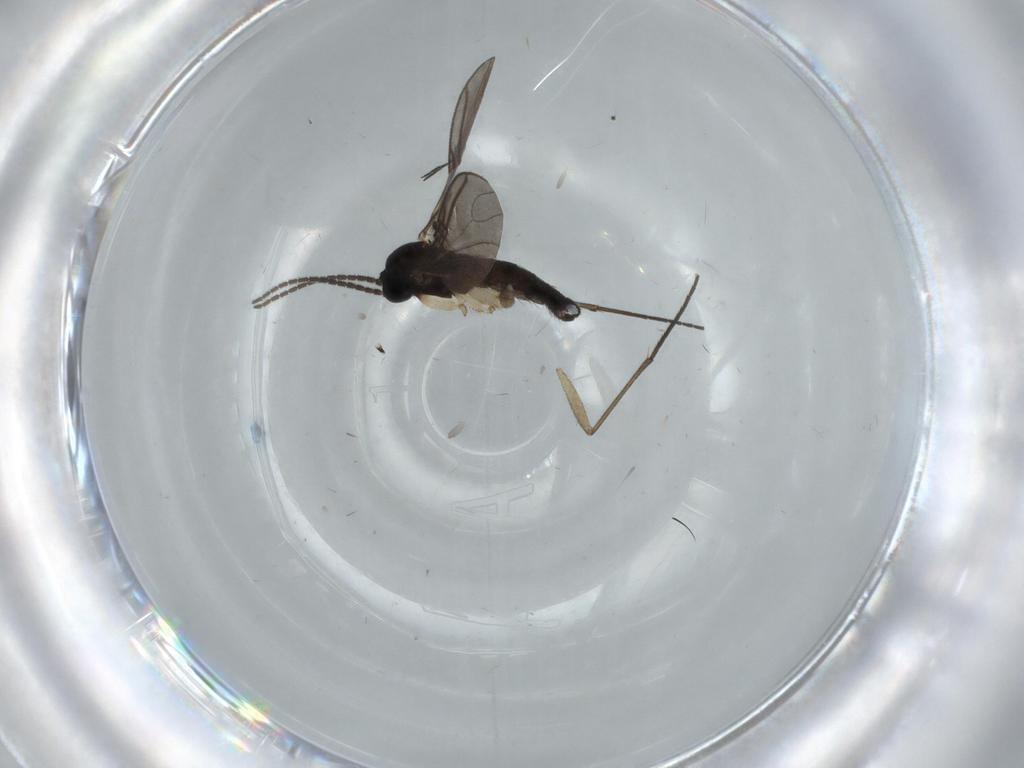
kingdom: Animalia
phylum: Arthropoda
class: Insecta
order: Diptera
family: Sciaridae
